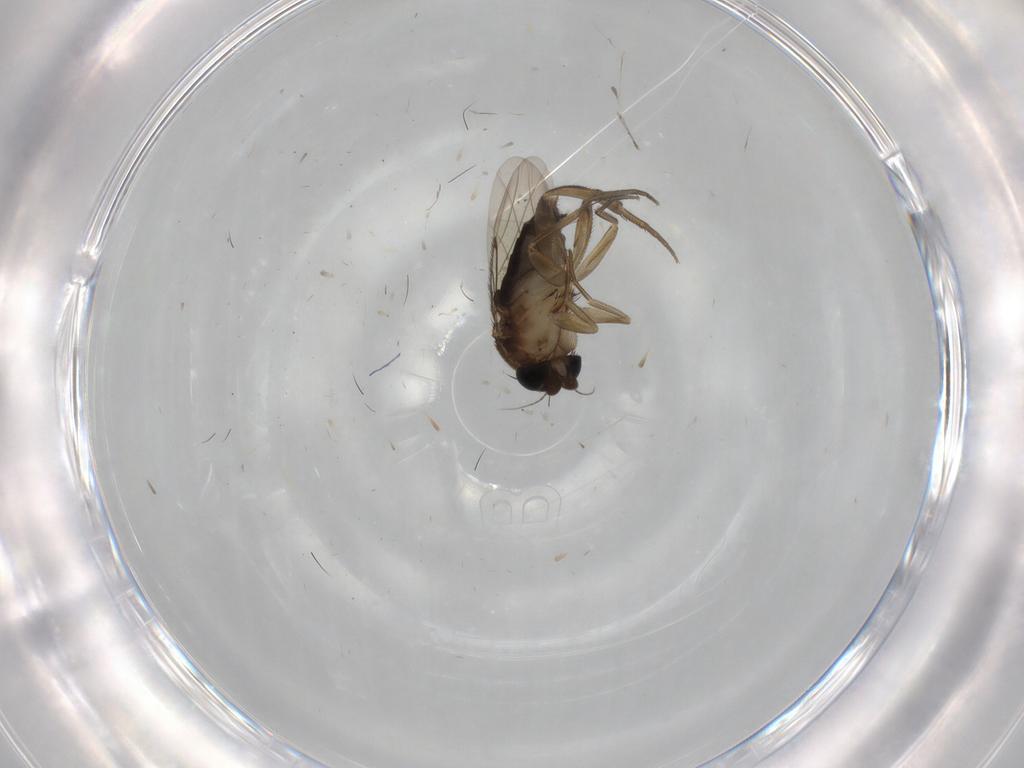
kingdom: Animalia
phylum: Arthropoda
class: Insecta
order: Diptera
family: Phoridae
